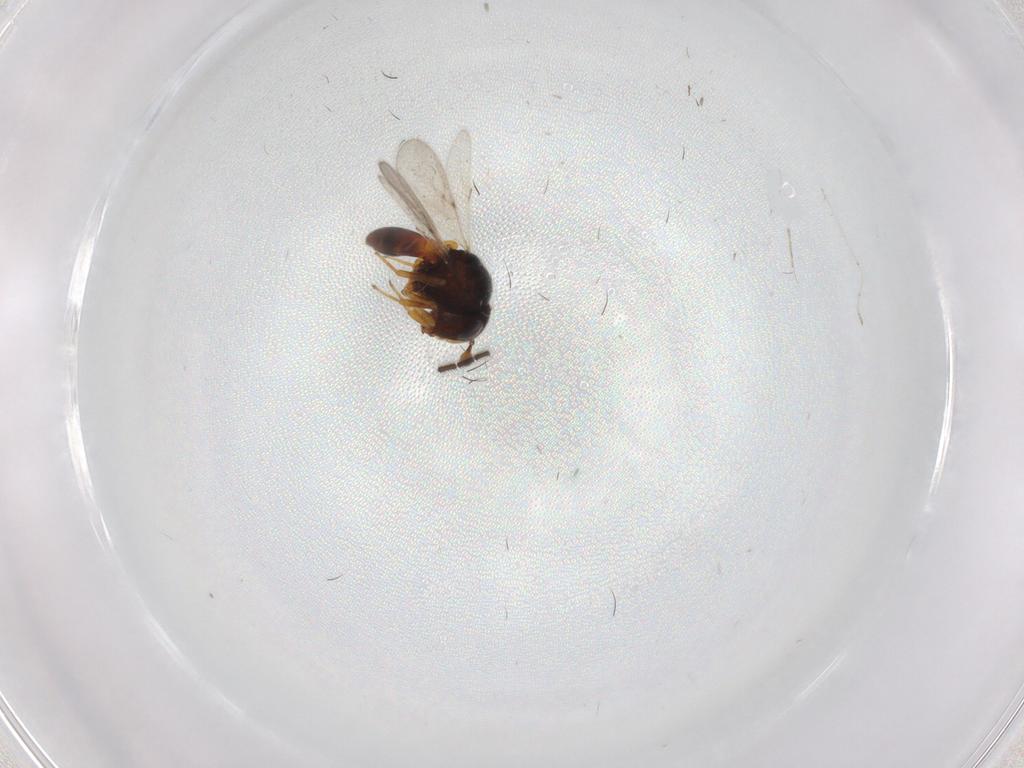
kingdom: Animalia
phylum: Arthropoda
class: Insecta
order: Hymenoptera
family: Scelionidae
